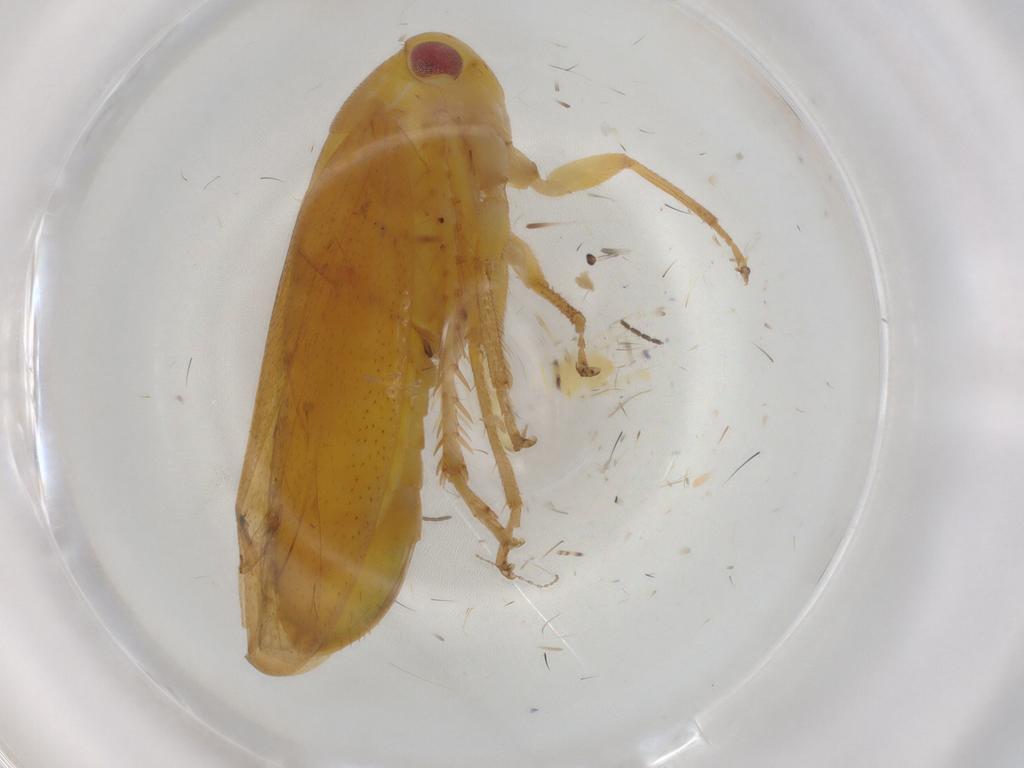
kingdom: Animalia
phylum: Arthropoda
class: Insecta
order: Hemiptera
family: Aleyrodidae
